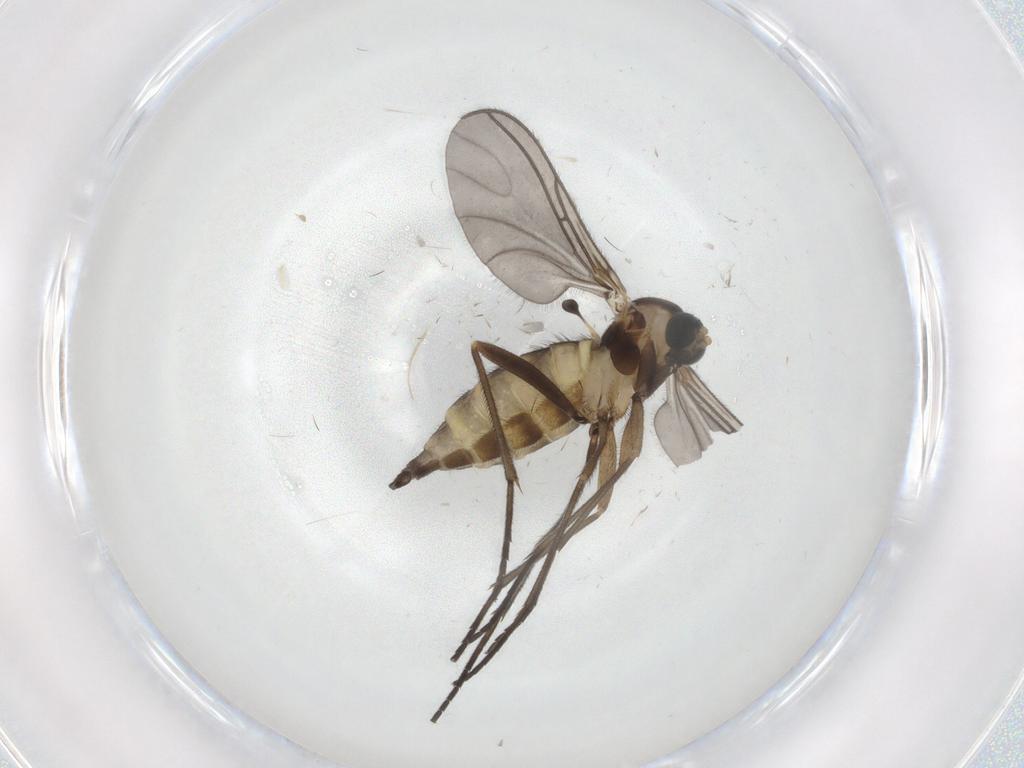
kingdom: Animalia
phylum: Arthropoda
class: Insecta
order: Diptera
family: Sciaridae
